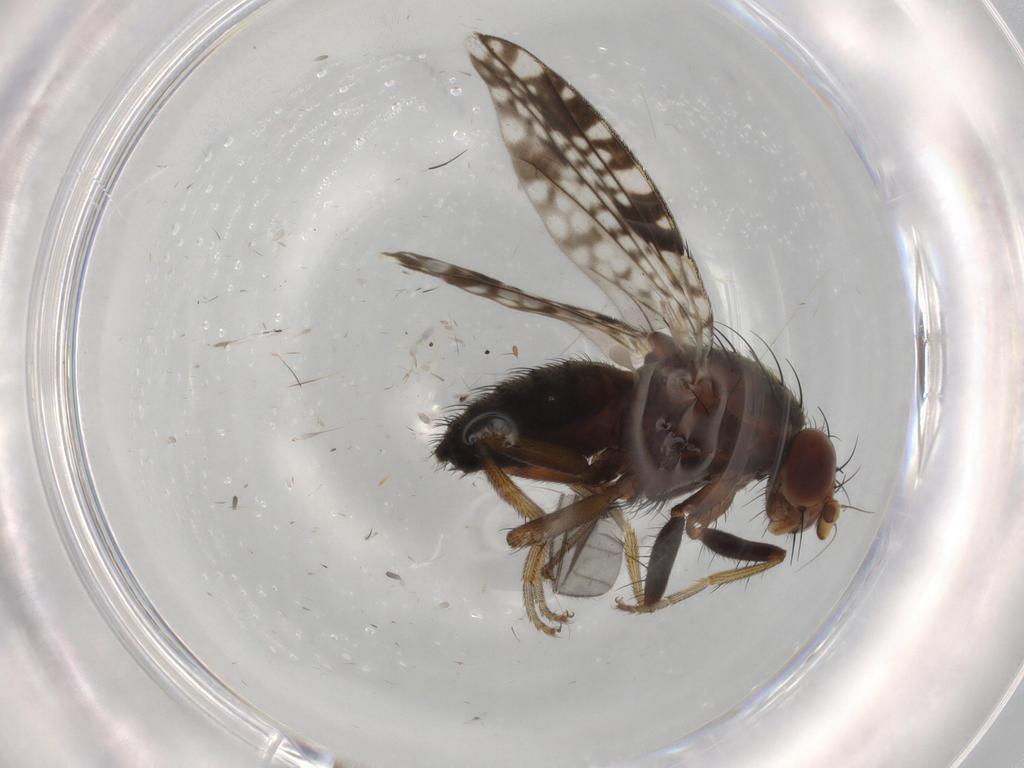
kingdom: Animalia
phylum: Arthropoda
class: Insecta
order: Diptera
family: Tephritidae
